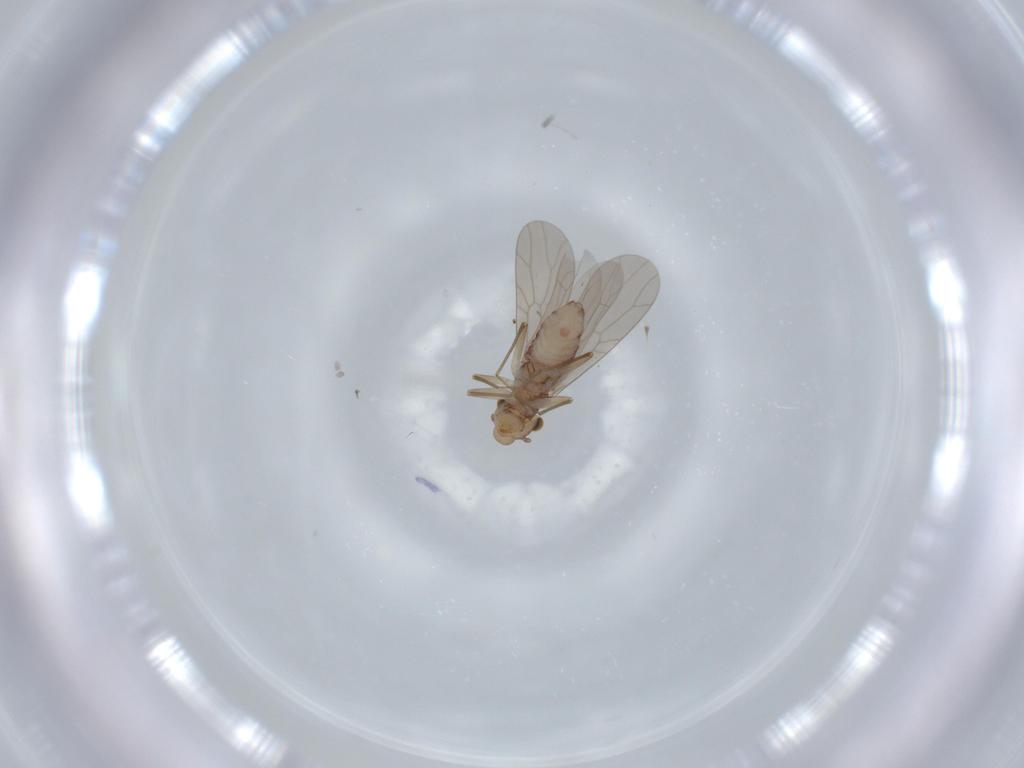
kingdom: Animalia
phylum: Arthropoda
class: Insecta
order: Psocodea
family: Lepidopsocidae
